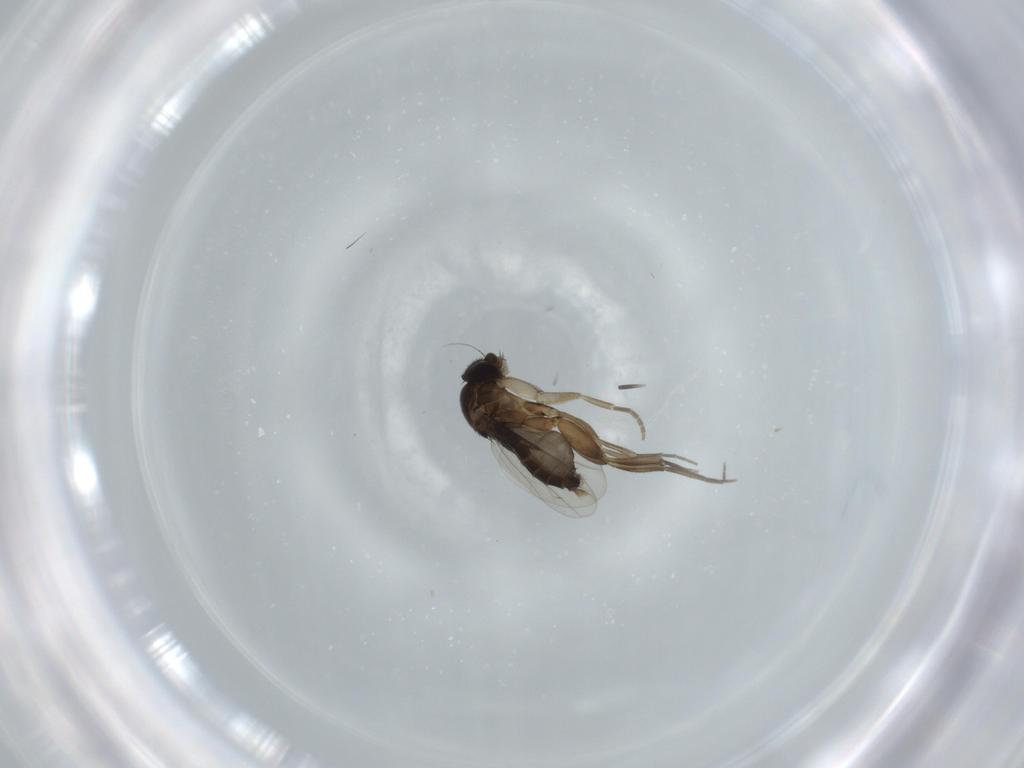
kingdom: Animalia
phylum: Arthropoda
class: Insecta
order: Diptera
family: Phoridae
